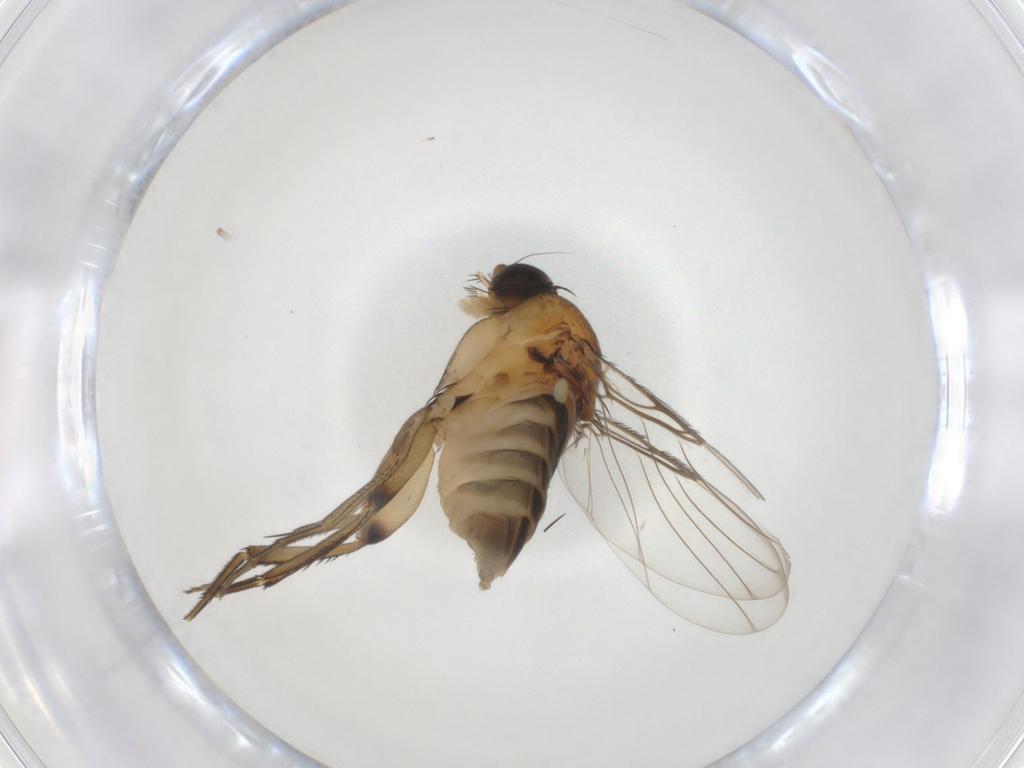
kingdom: Animalia
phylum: Arthropoda
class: Insecta
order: Diptera
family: Phoridae
